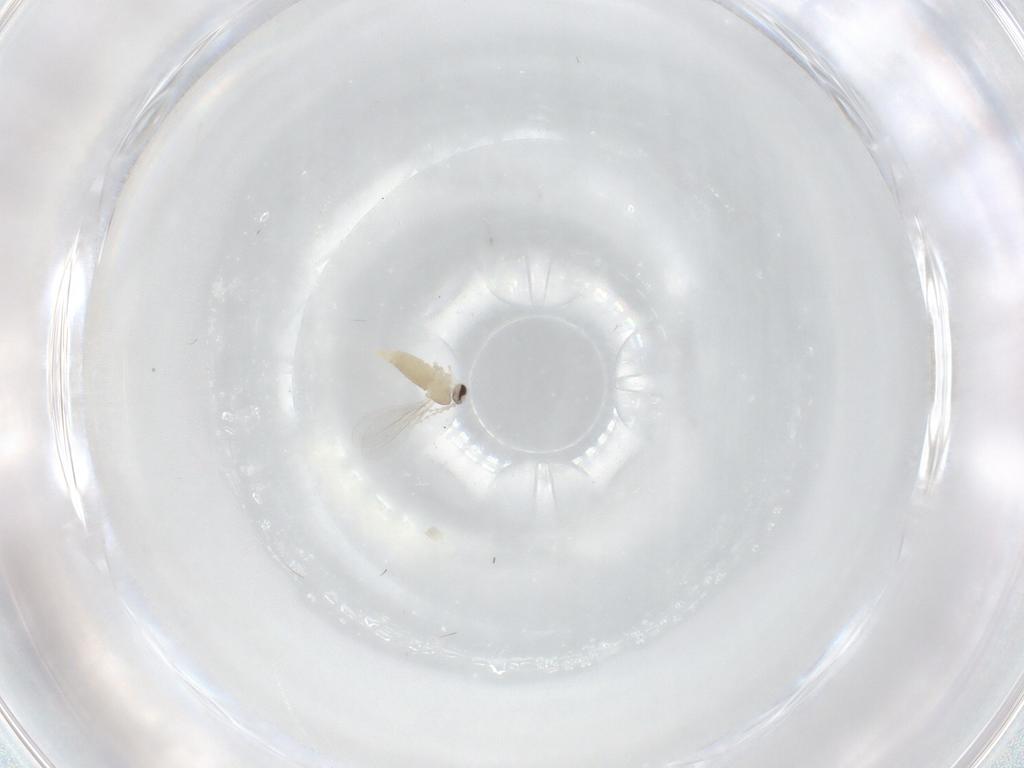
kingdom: Animalia
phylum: Arthropoda
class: Insecta
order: Diptera
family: Cecidomyiidae
